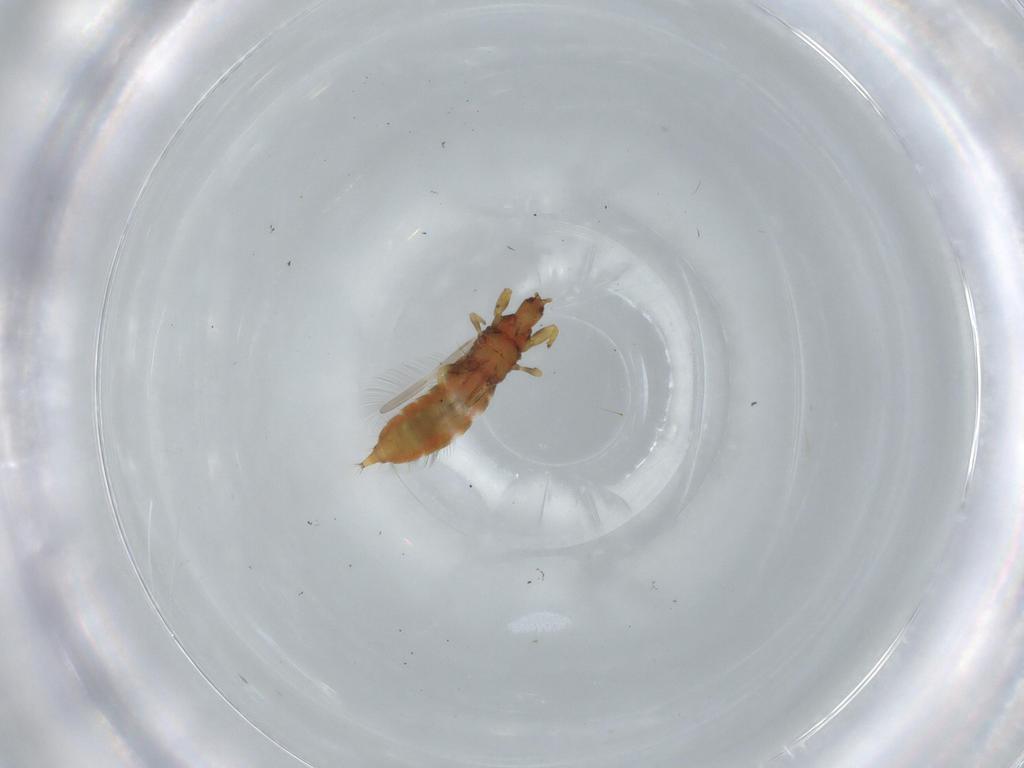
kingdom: Animalia
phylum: Arthropoda
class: Insecta
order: Thysanoptera
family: Phlaeothripidae
